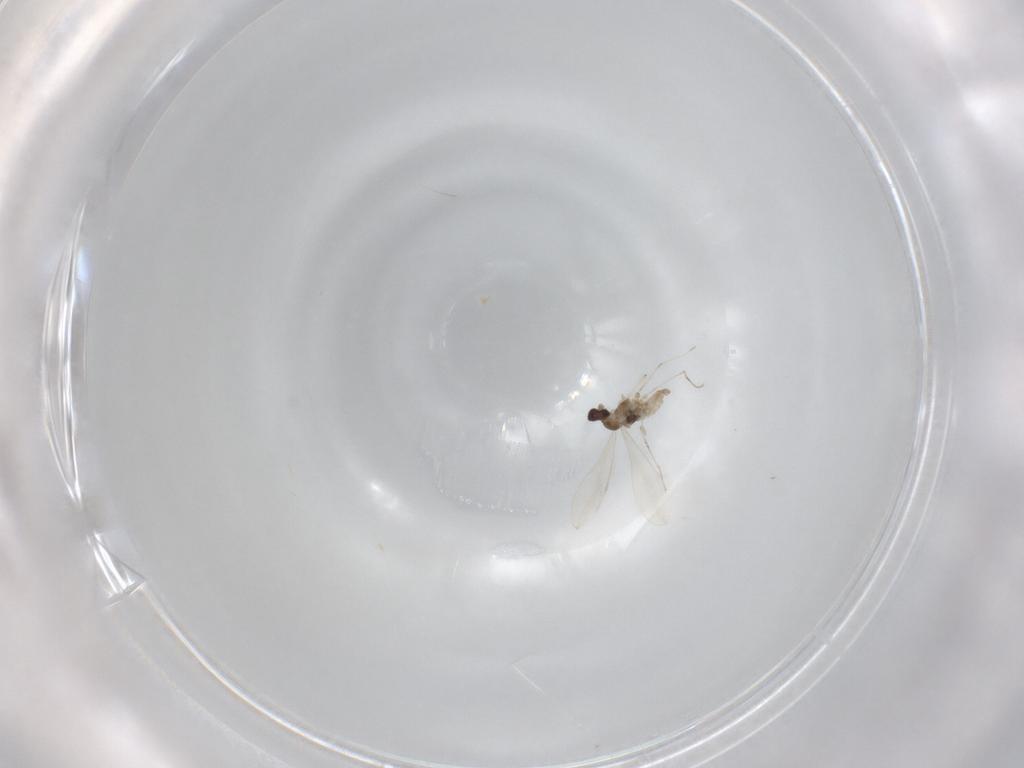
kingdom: Animalia
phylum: Arthropoda
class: Insecta
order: Diptera
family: Cecidomyiidae
